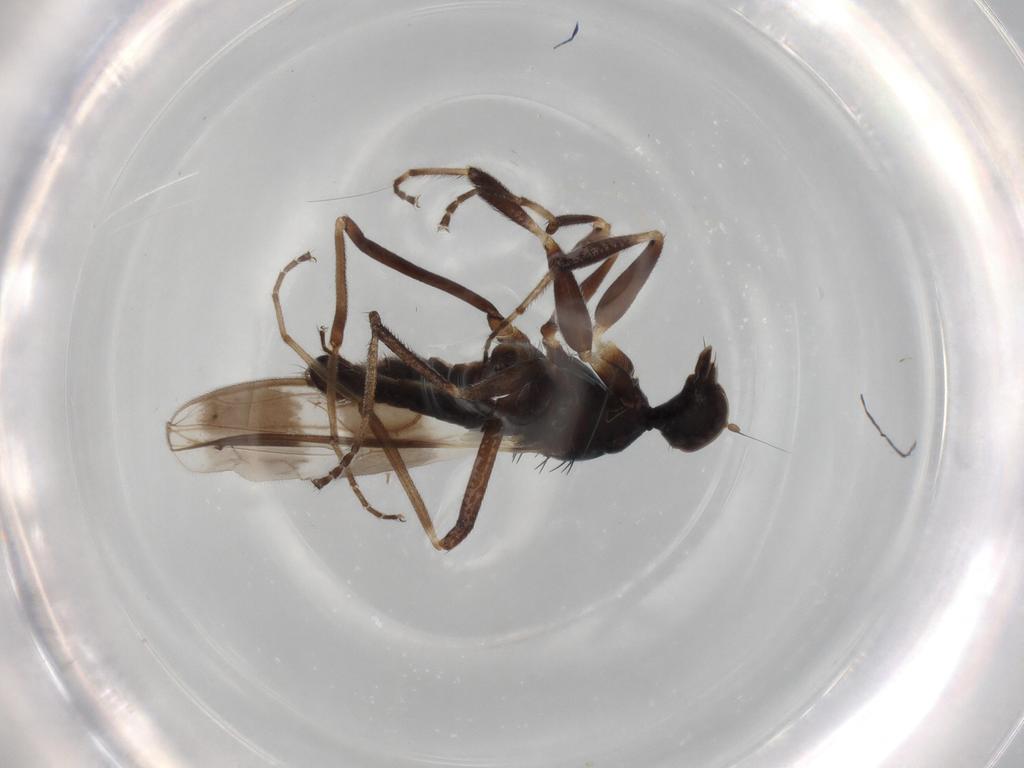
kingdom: Animalia
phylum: Arthropoda
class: Insecta
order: Diptera
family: Hybotidae
